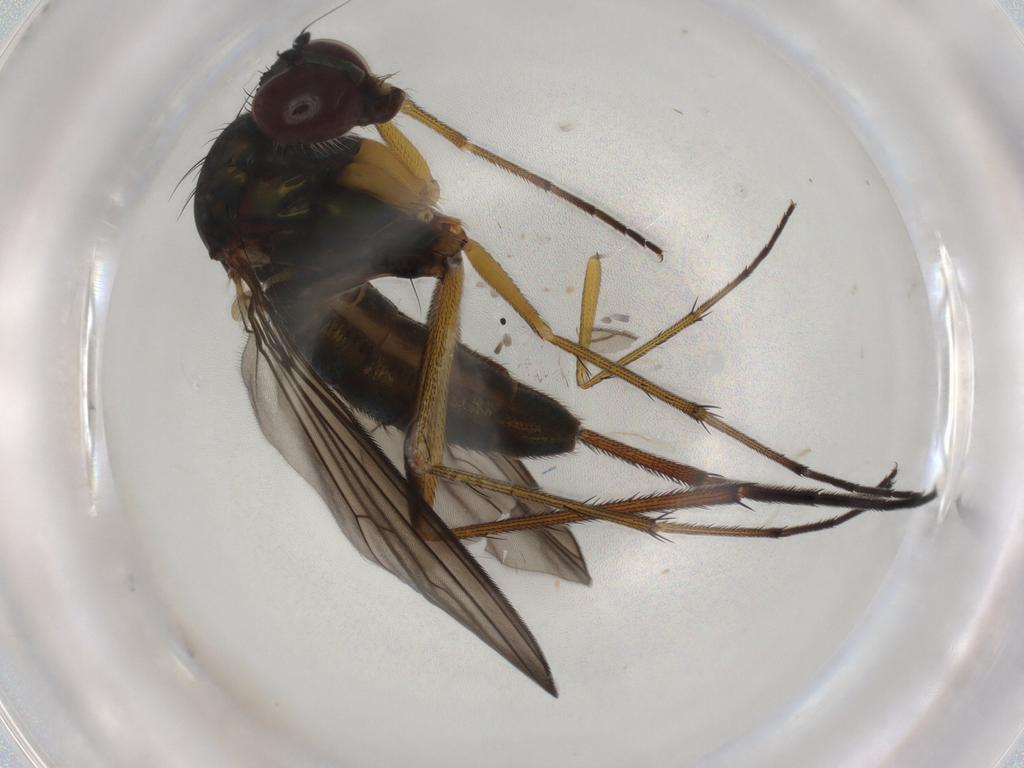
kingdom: Animalia
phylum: Arthropoda
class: Insecta
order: Diptera
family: Dolichopodidae
